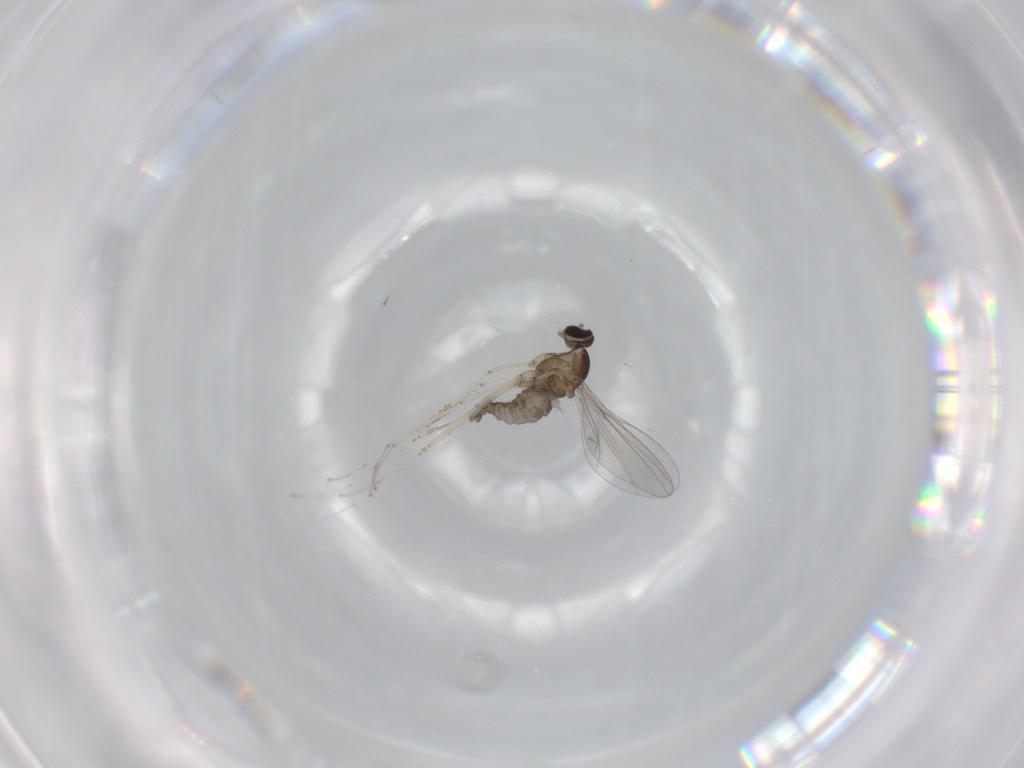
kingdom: Animalia
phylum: Arthropoda
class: Insecta
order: Diptera
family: Cecidomyiidae
